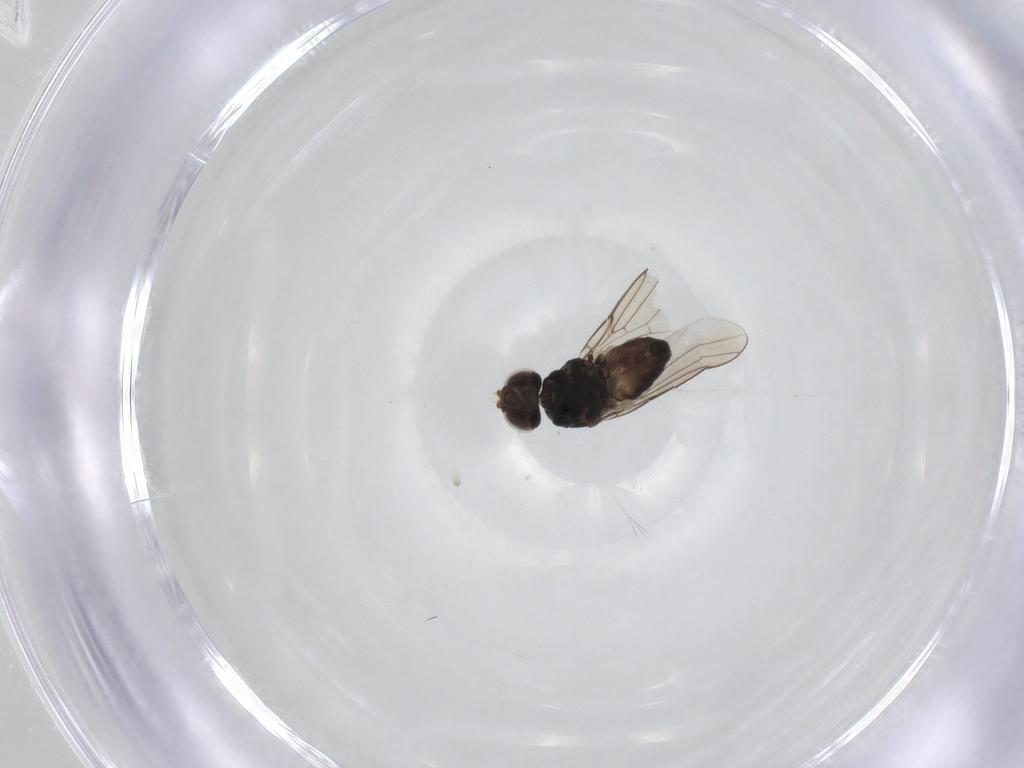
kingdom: Animalia
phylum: Arthropoda
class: Insecta
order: Diptera
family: Chloropidae
